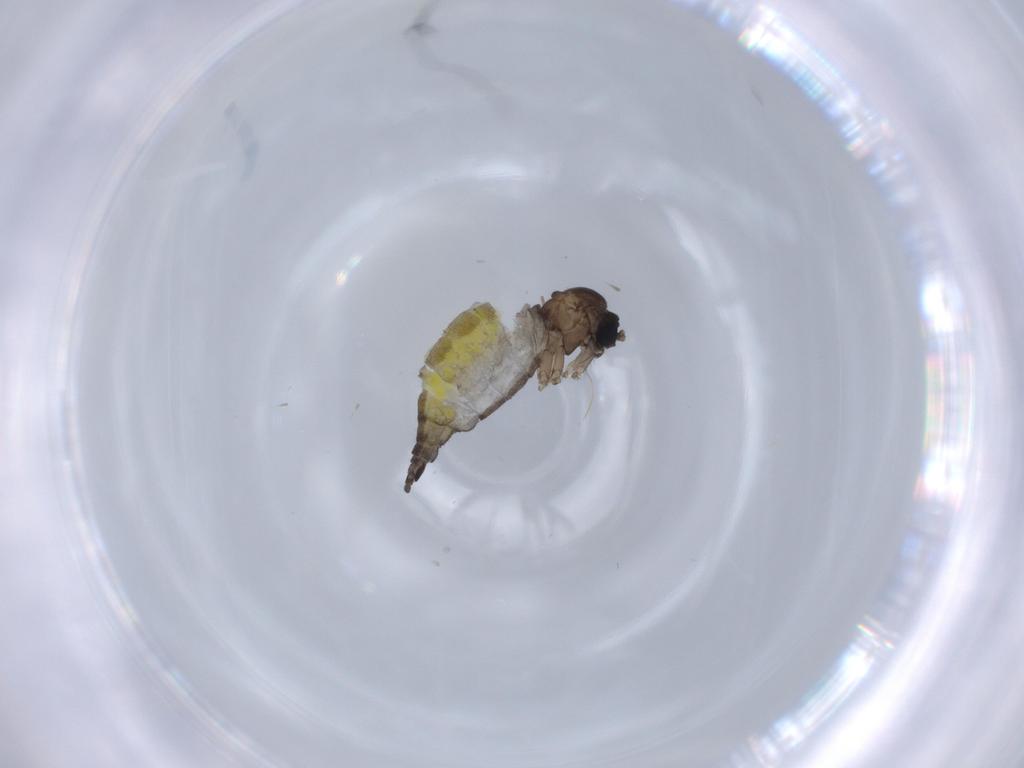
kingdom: Animalia
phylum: Arthropoda
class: Insecta
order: Diptera
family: Sciaridae
